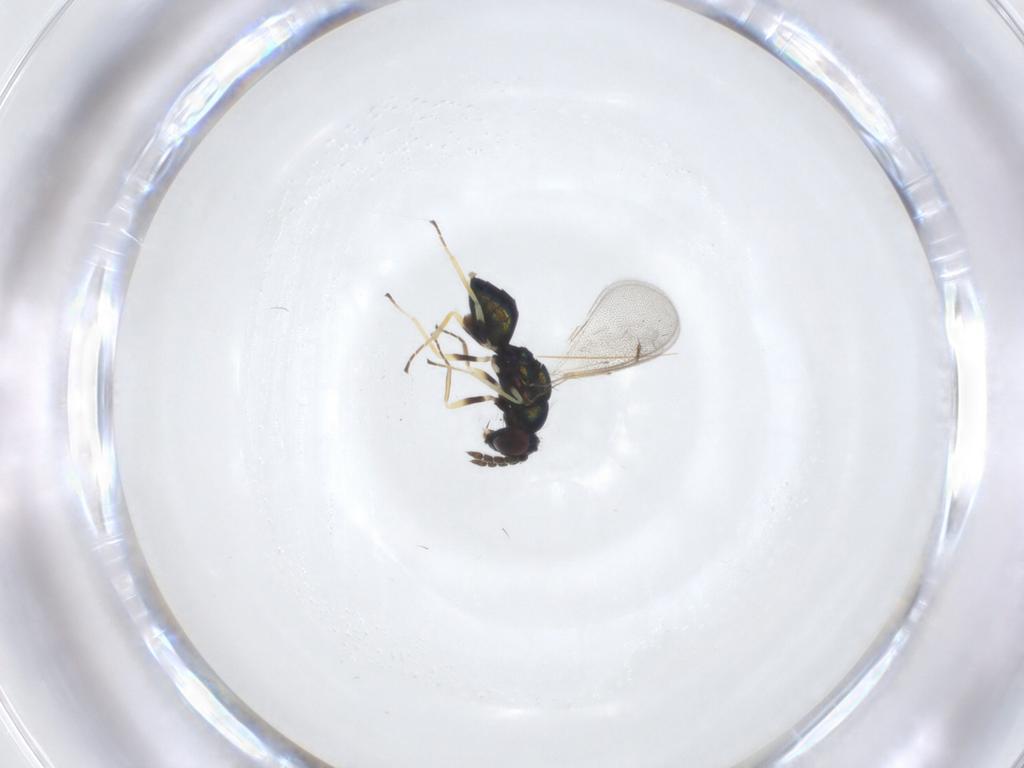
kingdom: Animalia
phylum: Arthropoda
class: Insecta
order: Hymenoptera
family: Eulophidae
